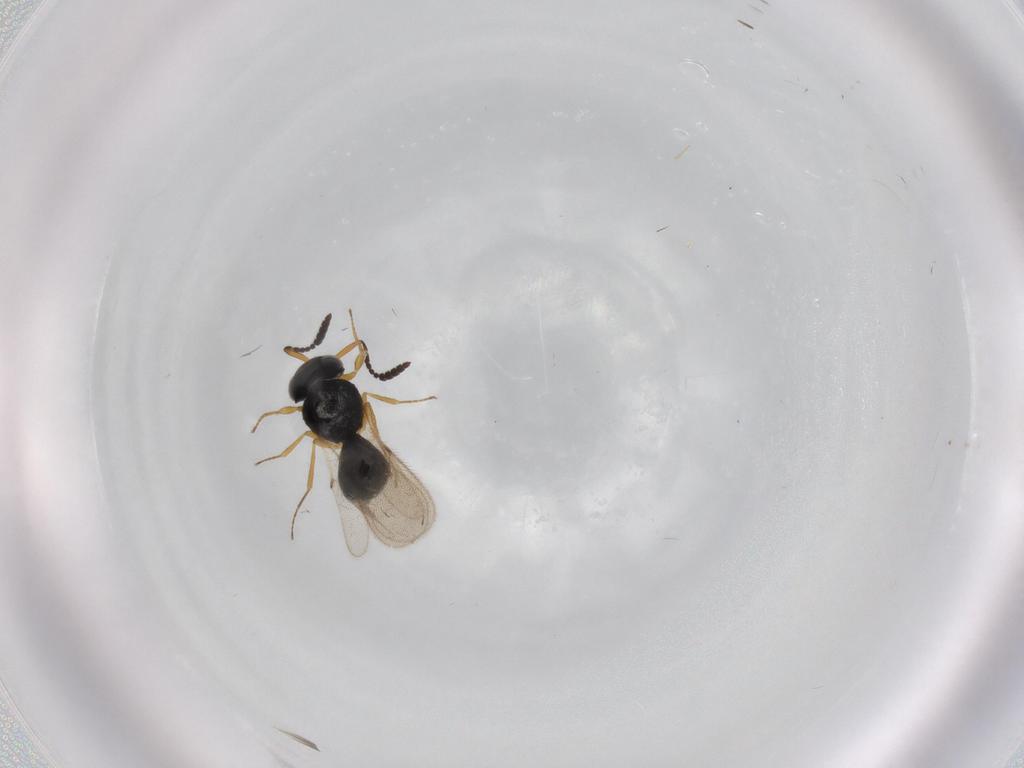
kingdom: Animalia
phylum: Arthropoda
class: Insecta
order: Hymenoptera
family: Scelionidae
